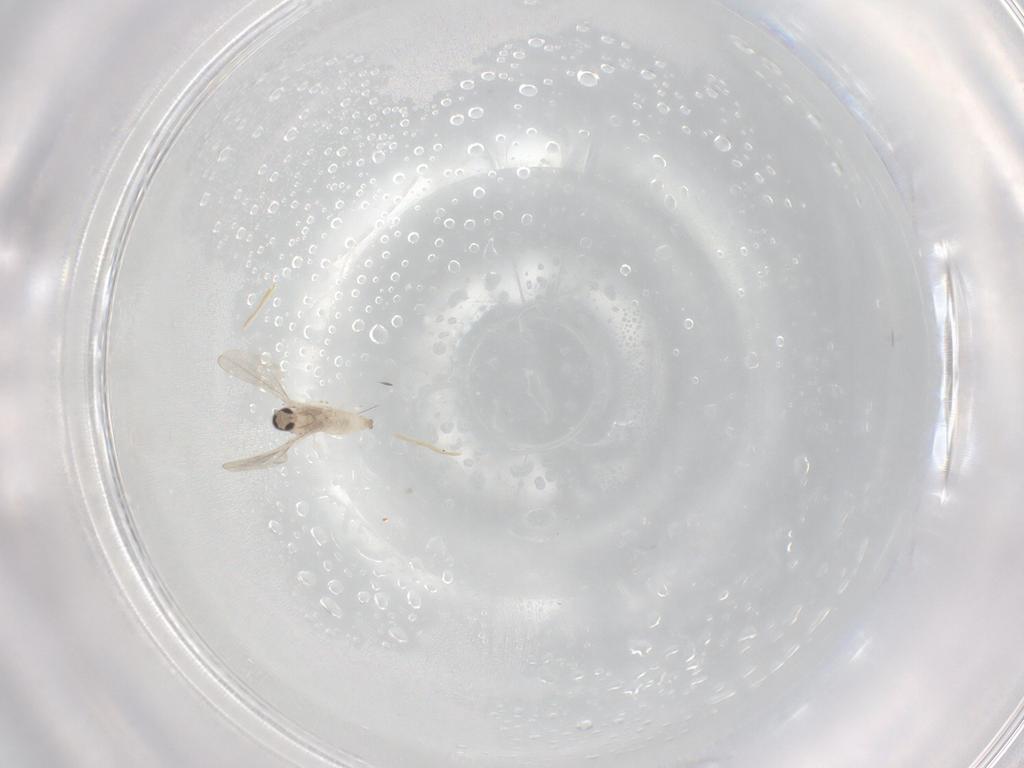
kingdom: Animalia
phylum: Arthropoda
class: Insecta
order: Diptera
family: Cecidomyiidae
